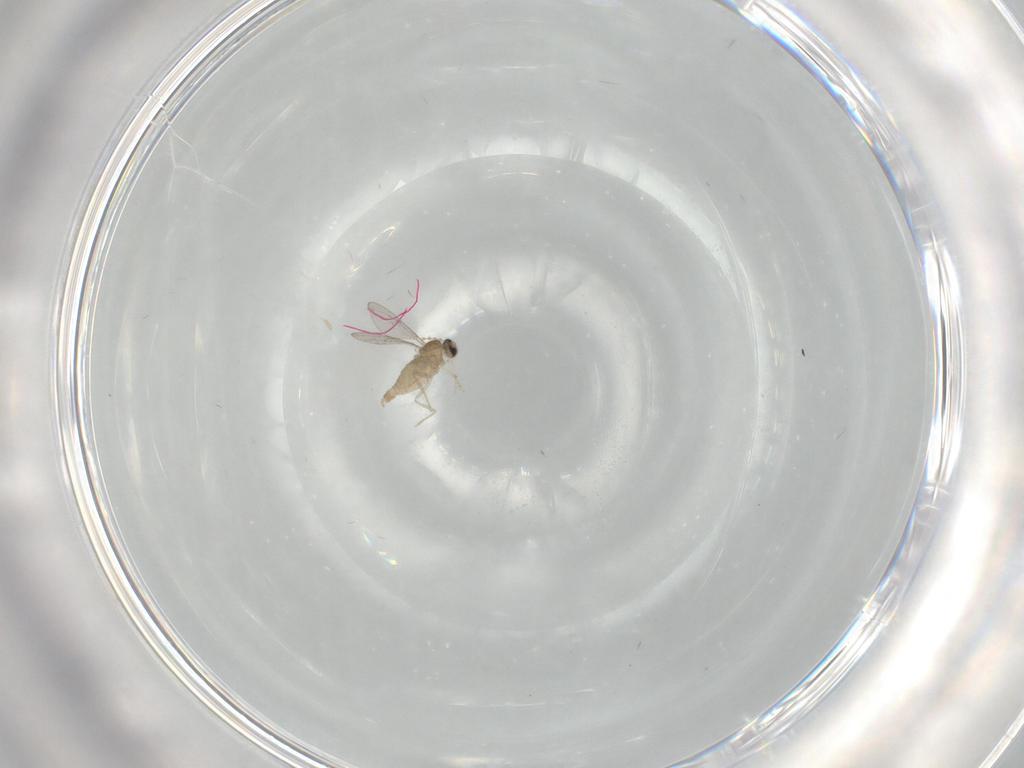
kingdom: Animalia
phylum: Arthropoda
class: Insecta
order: Diptera
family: Cecidomyiidae
